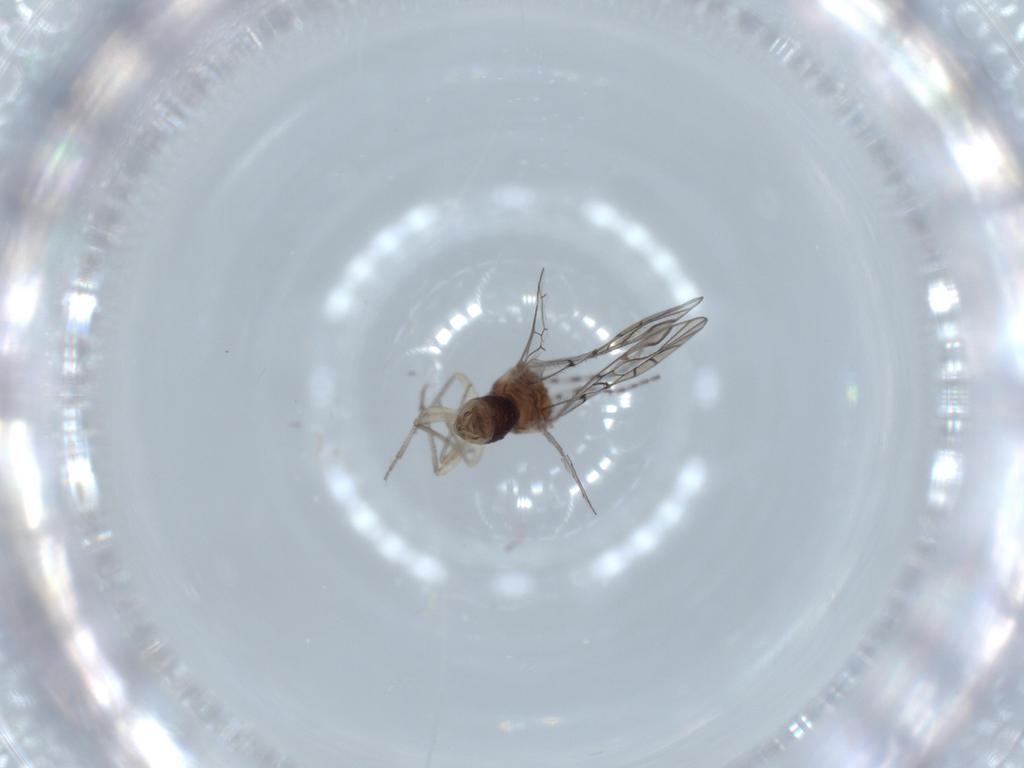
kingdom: Animalia
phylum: Arthropoda
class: Insecta
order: Psocodea
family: Amphipsocidae
